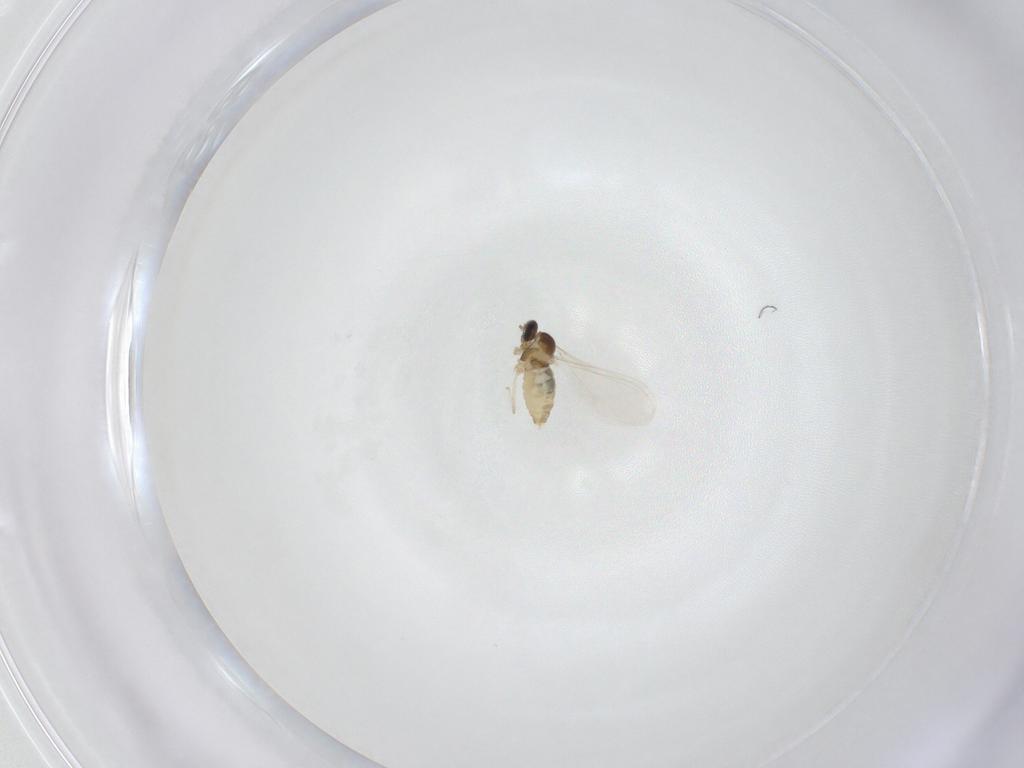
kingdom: Animalia
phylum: Arthropoda
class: Insecta
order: Diptera
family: Cecidomyiidae
